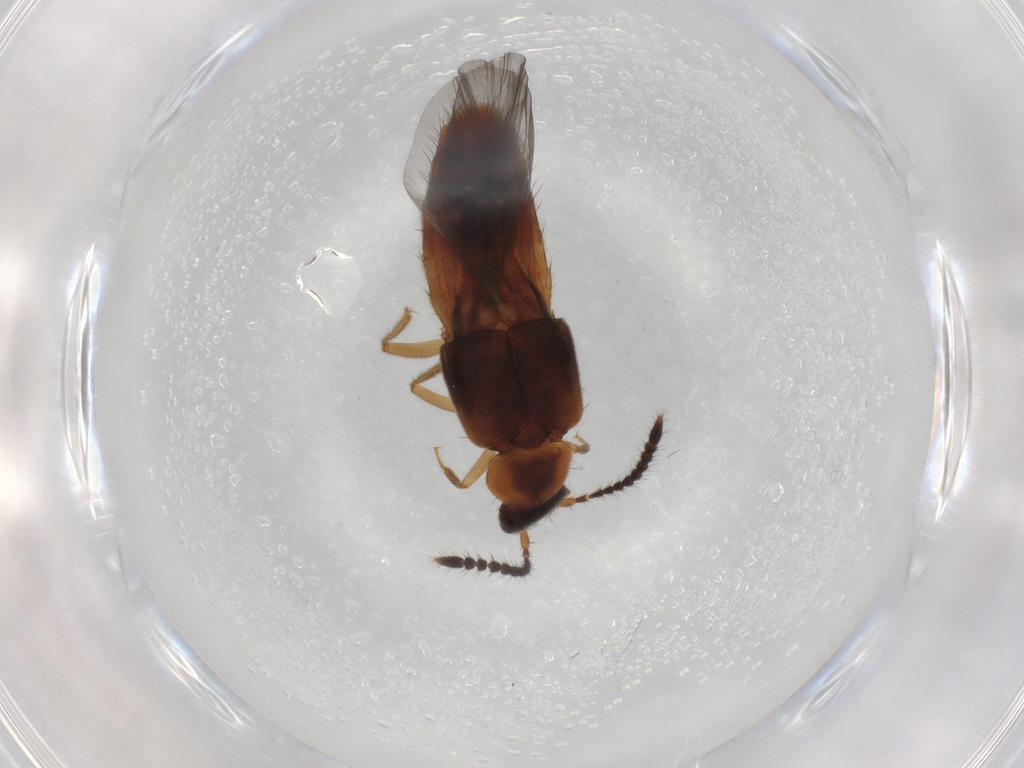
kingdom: Animalia
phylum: Arthropoda
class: Insecta
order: Coleoptera
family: Staphylinidae
